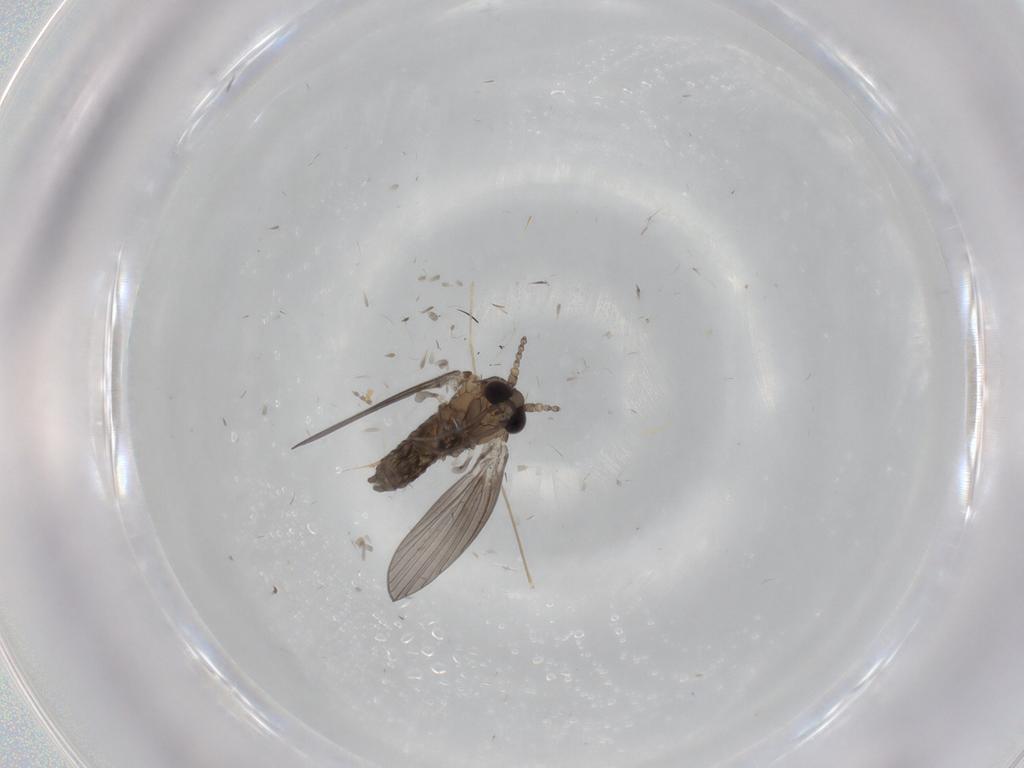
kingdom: Animalia
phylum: Arthropoda
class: Insecta
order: Diptera
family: Psychodidae
